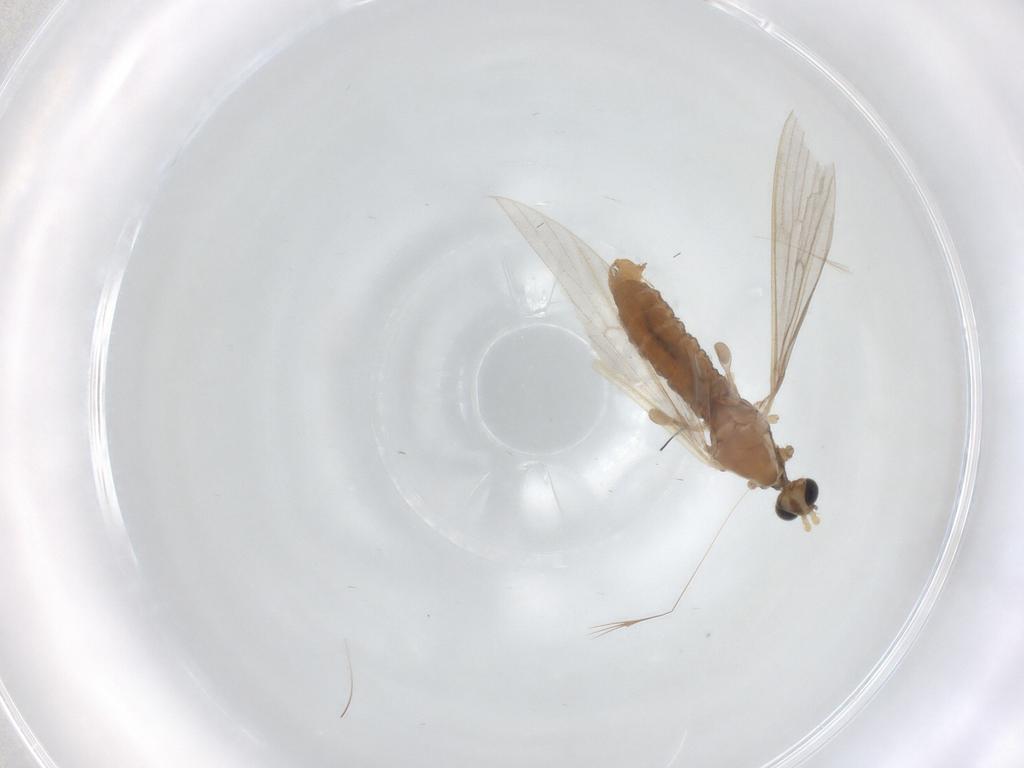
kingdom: Animalia
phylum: Arthropoda
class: Insecta
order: Diptera
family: Limoniidae
